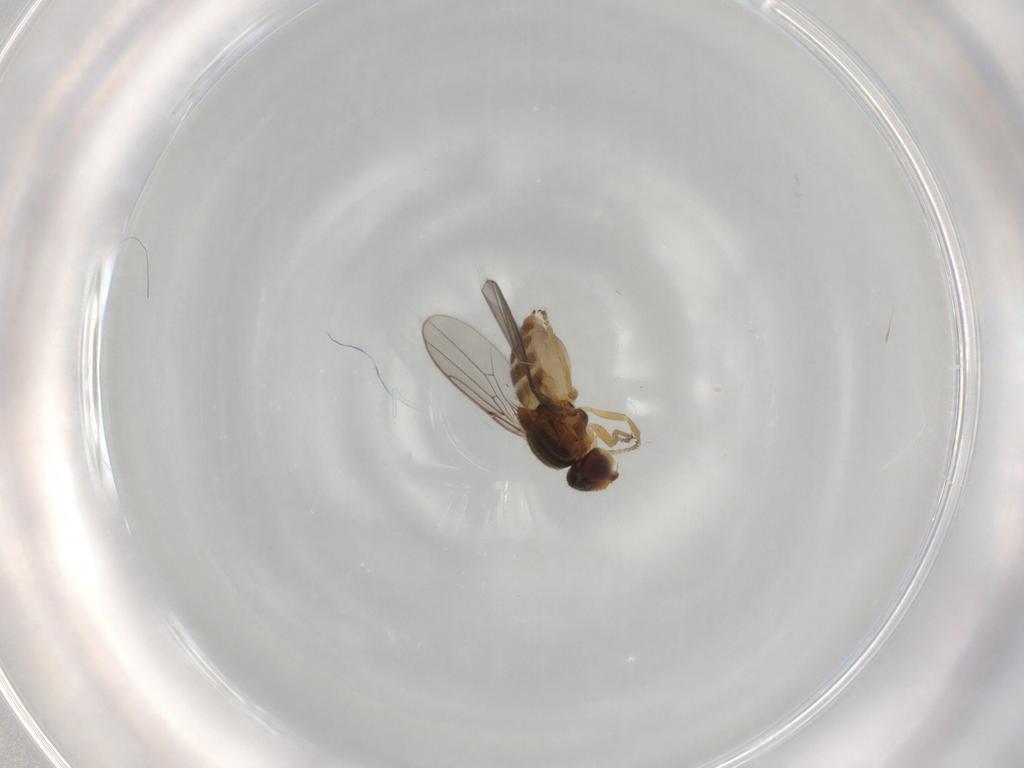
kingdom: Animalia
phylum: Arthropoda
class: Insecta
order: Diptera
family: Chloropidae
